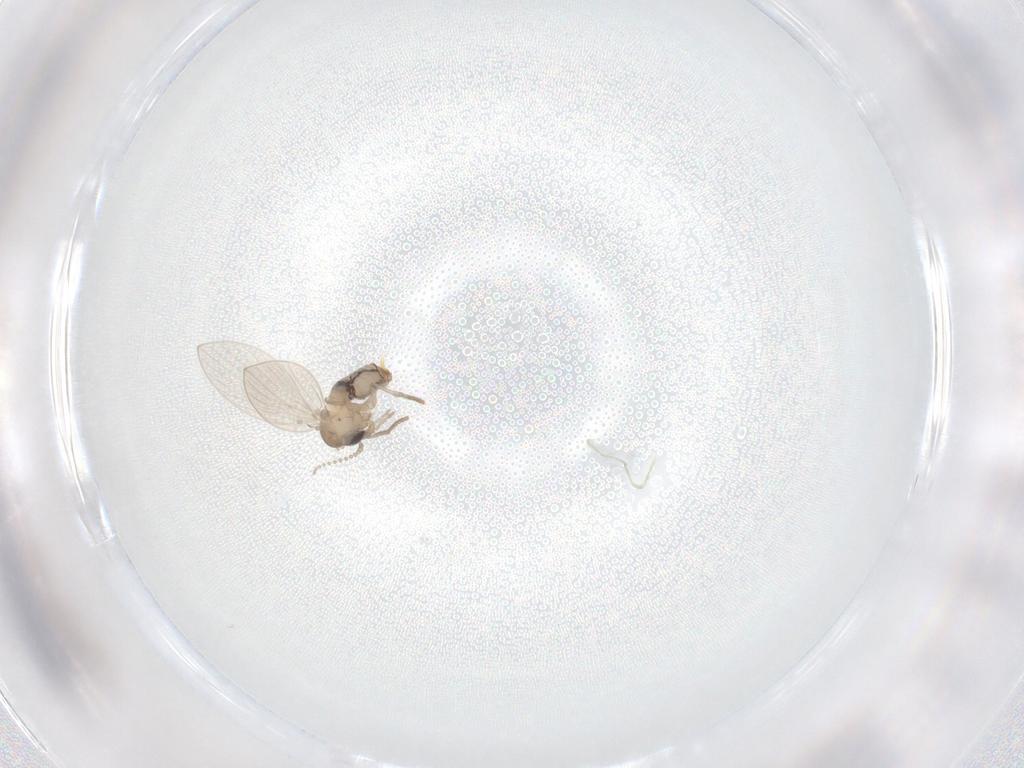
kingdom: Animalia
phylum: Arthropoda
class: Insecta
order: Diptera
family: Psychodidae
